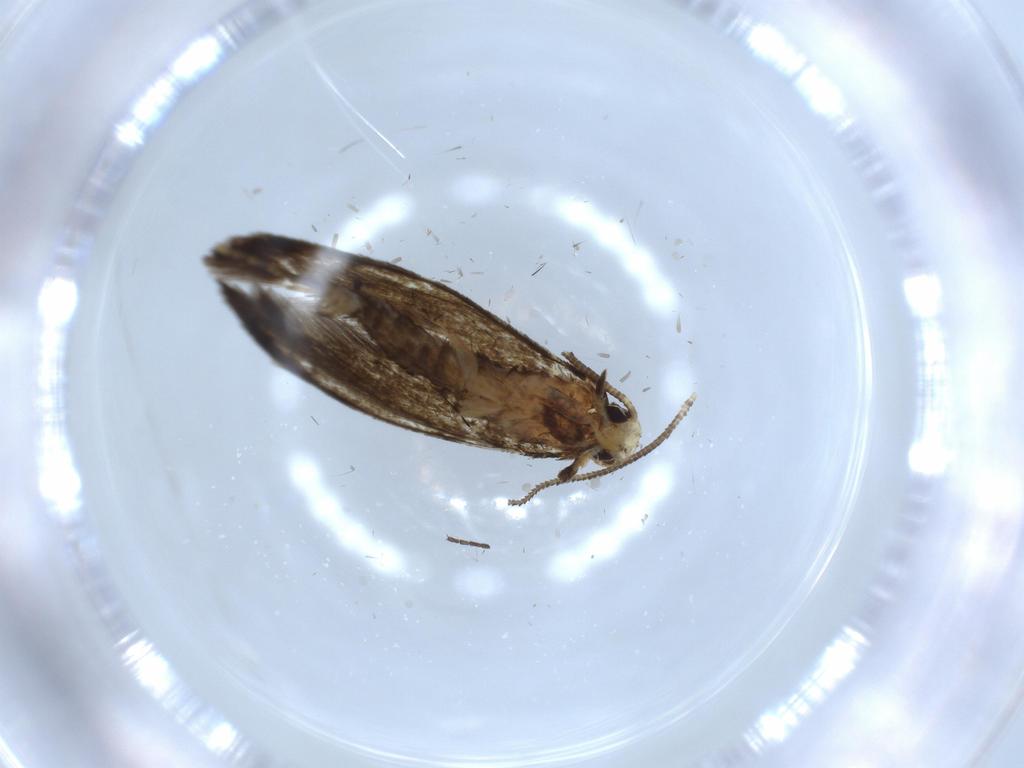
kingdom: Animalia
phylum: Arthropoda
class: Insecta
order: Lepidoptera
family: Tineidae
